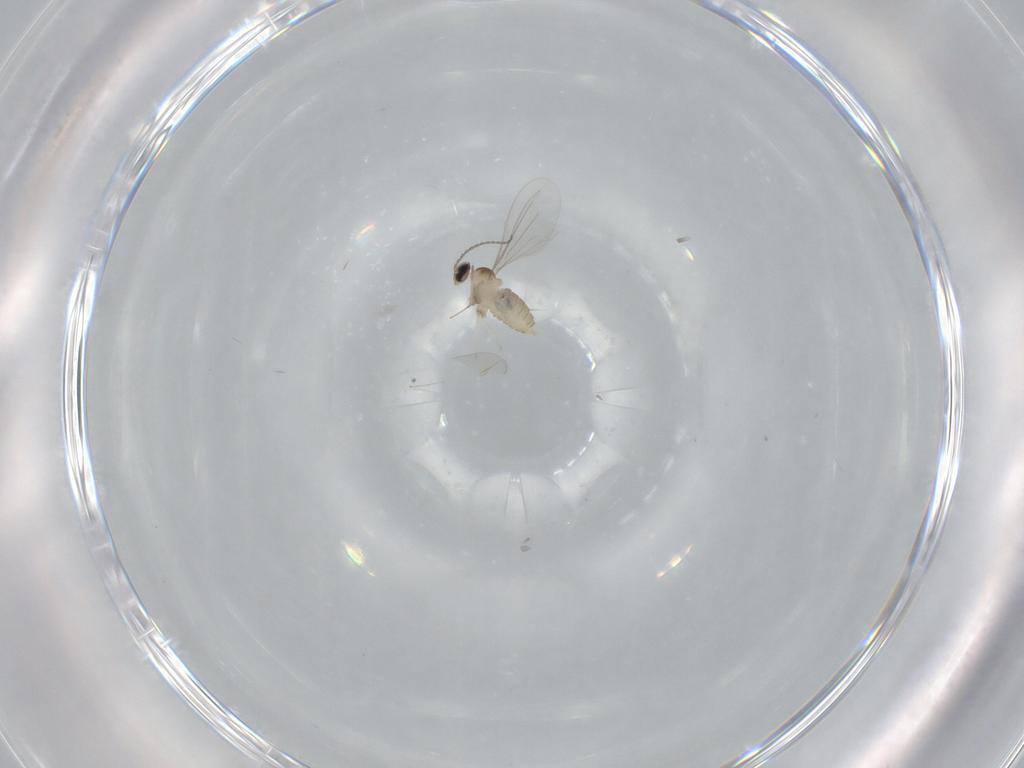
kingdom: Animalia
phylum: Arthropoda
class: Insecta
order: Diptera
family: Cecidomyiidae
